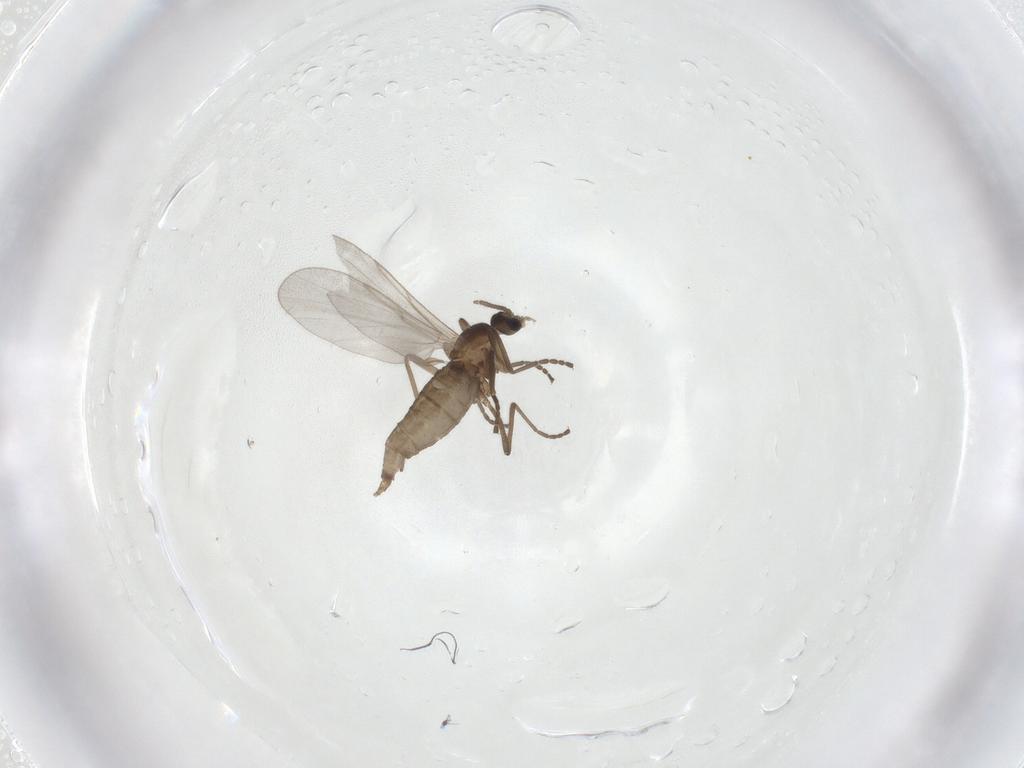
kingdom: Animalia
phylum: Arthropoda
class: Insecta
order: Diptera
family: Cecidomyiidae
